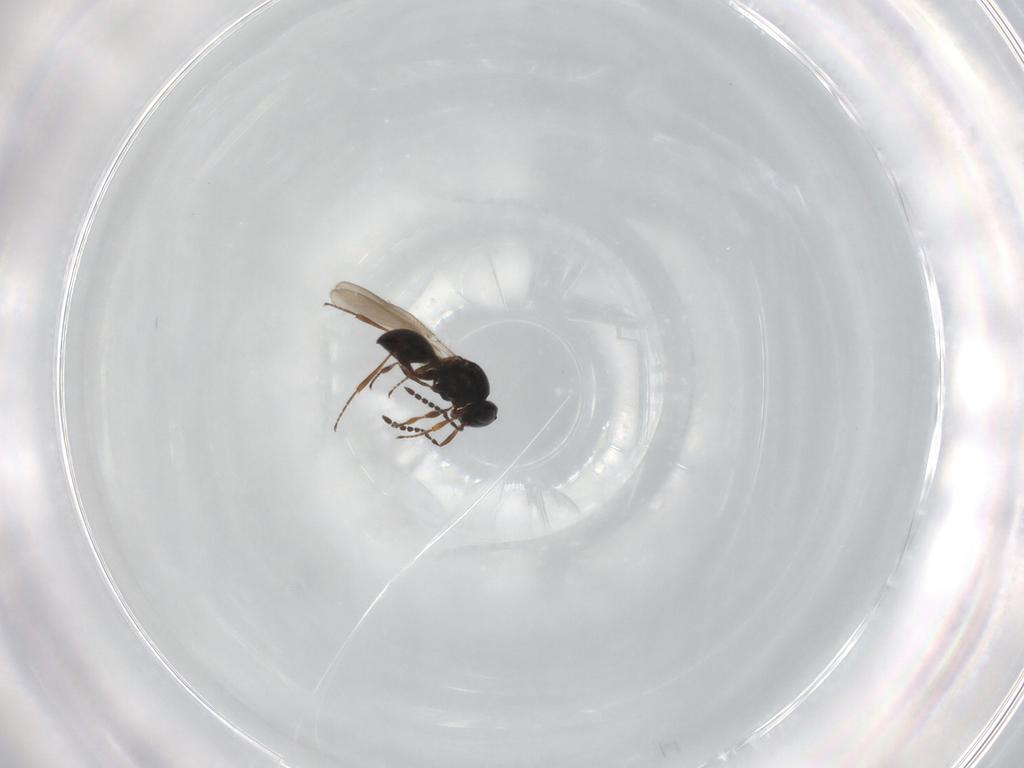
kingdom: Animalia
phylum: Arthropoda
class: Insecta
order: Hymenoptera
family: Platygastridae
